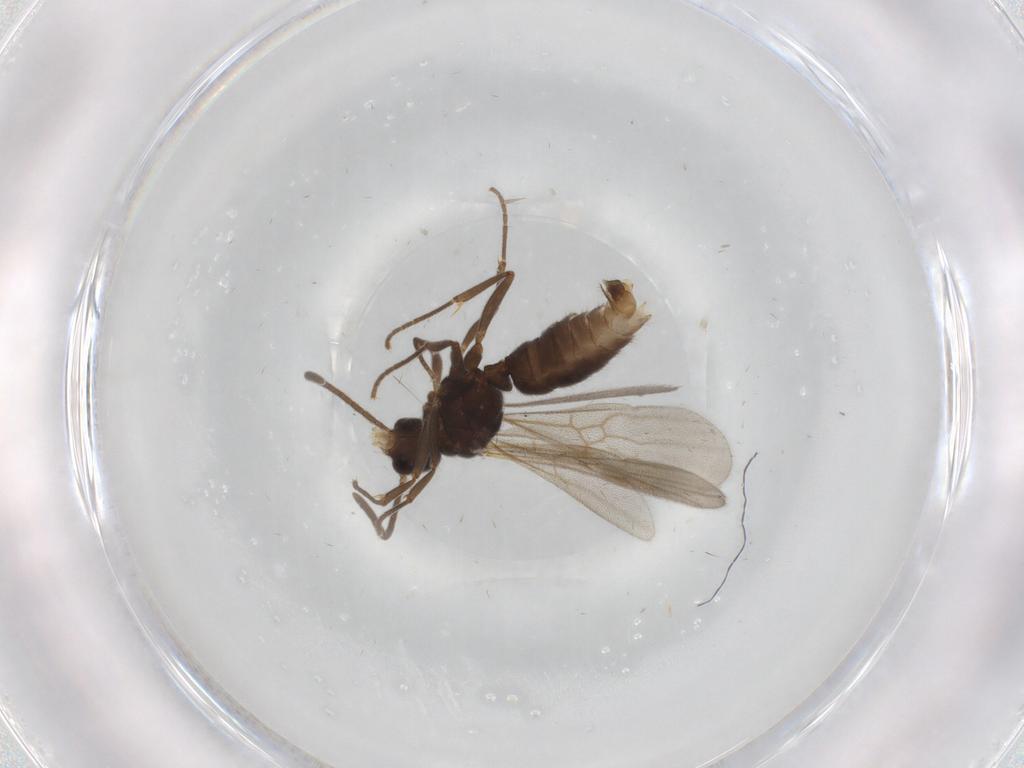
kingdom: Animalia
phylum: Arthropoda
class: Insecta
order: Hymenoptera
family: Formicidae
